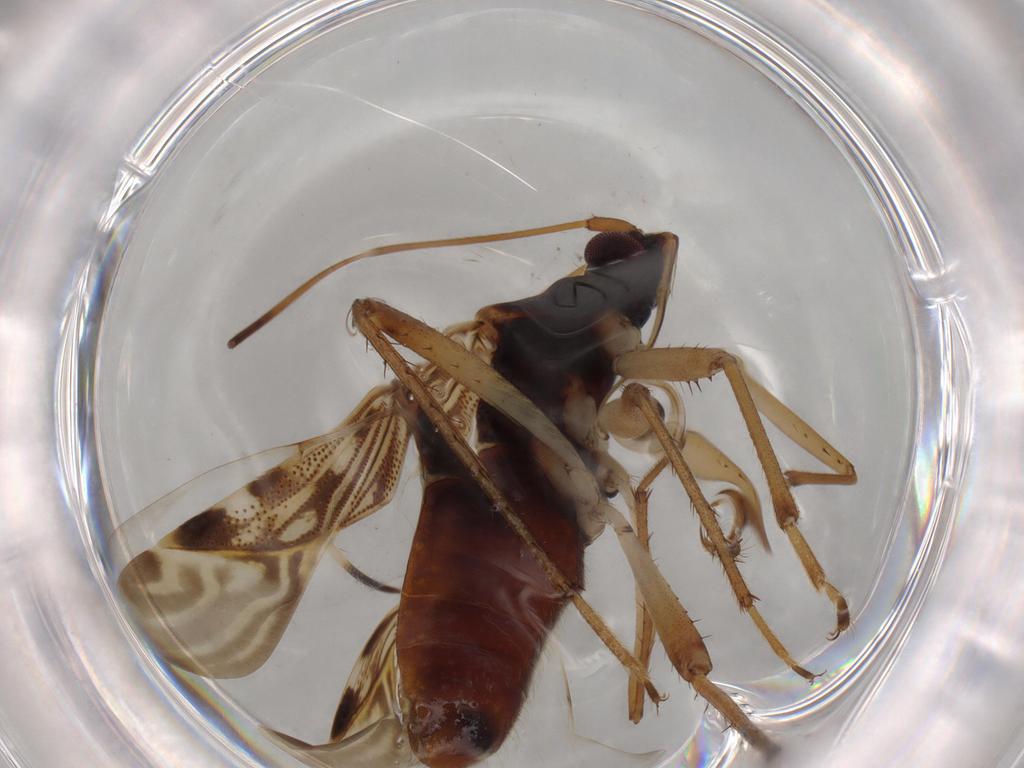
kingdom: Animalia
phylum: Arthropoda
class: Insecta
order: Hemiptera
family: Rhyparochromidae
